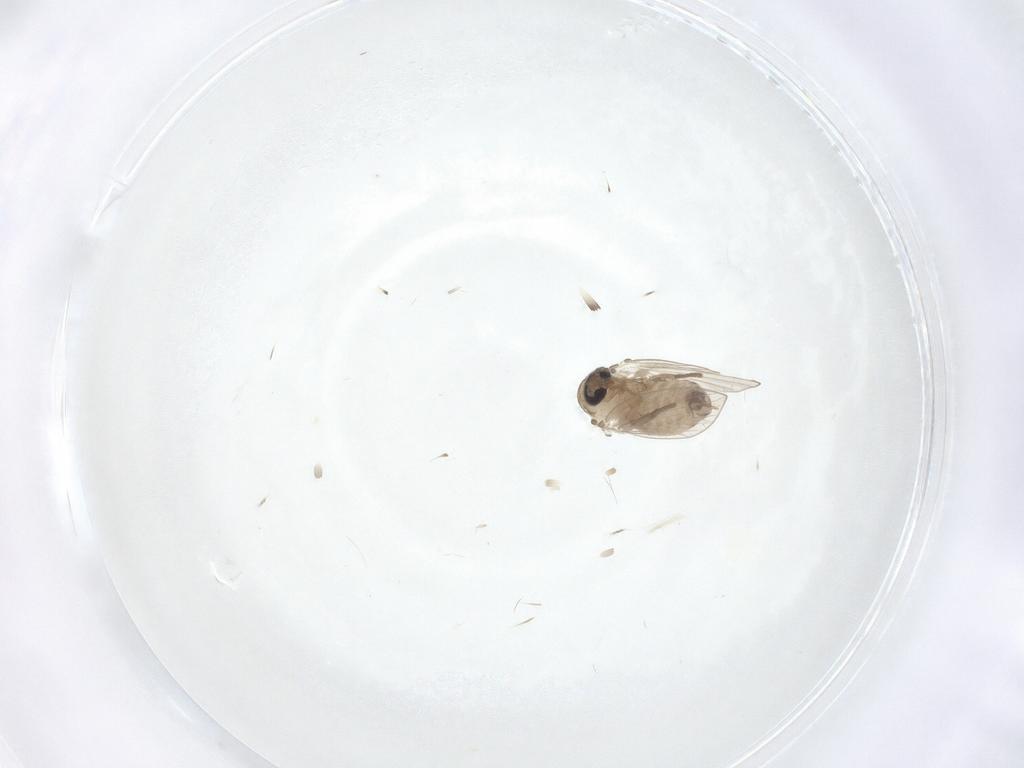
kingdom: Animalia
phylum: Arthropoda
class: Insecta
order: Diptera
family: Psychodidae
